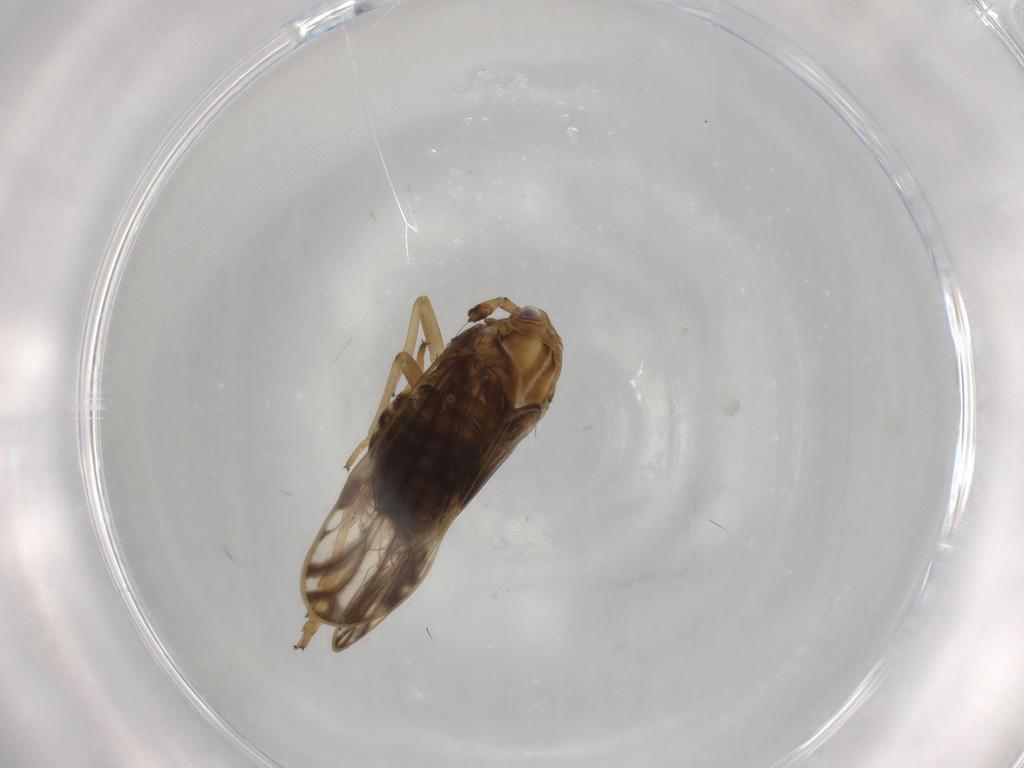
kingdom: Animalia
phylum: Arthropoda
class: Insecta
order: Hemiptera
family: Delphacidae
